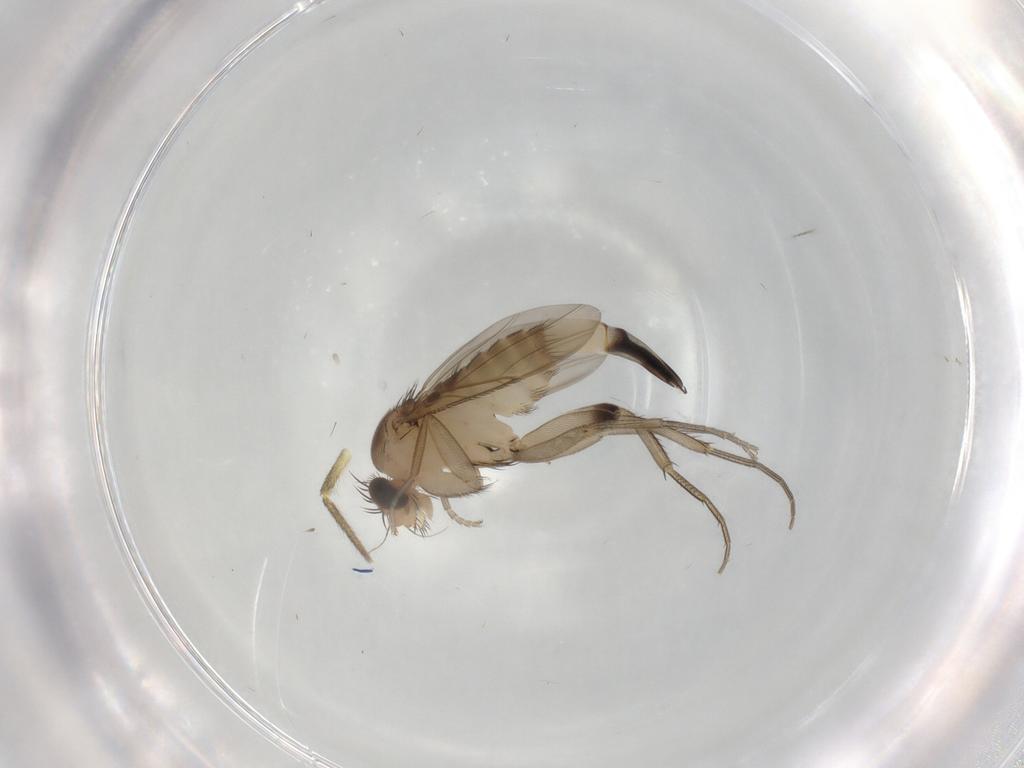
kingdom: Animalia
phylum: Arthropoda
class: Insecta
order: Diptera
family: Phoridae
